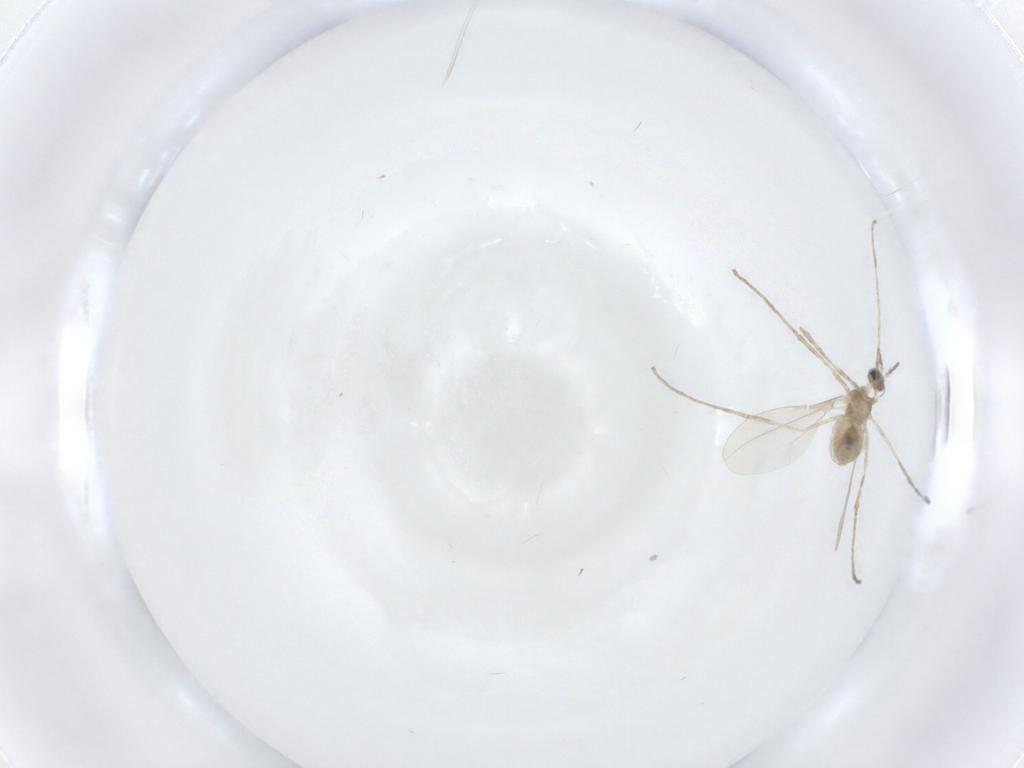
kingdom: Animalia
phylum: Arthropoda
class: Insecta
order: Diptera
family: Cecidomyiidae
